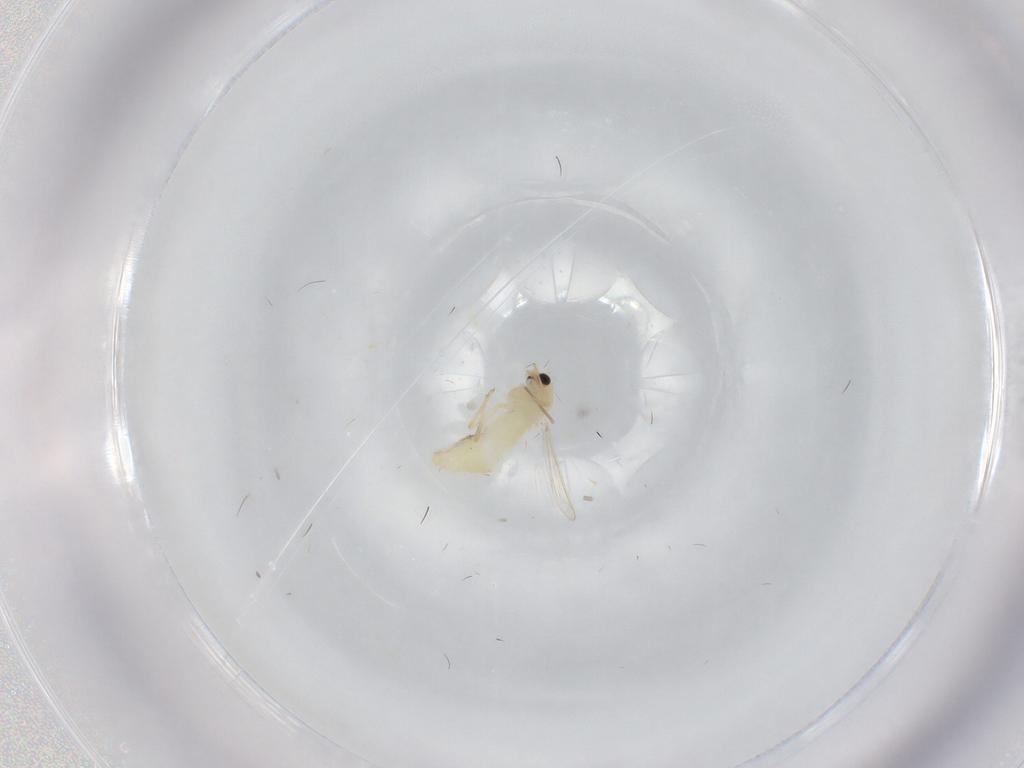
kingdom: Animalia
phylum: Arthropoda
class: Insecta
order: Diptera
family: Chironomidae
